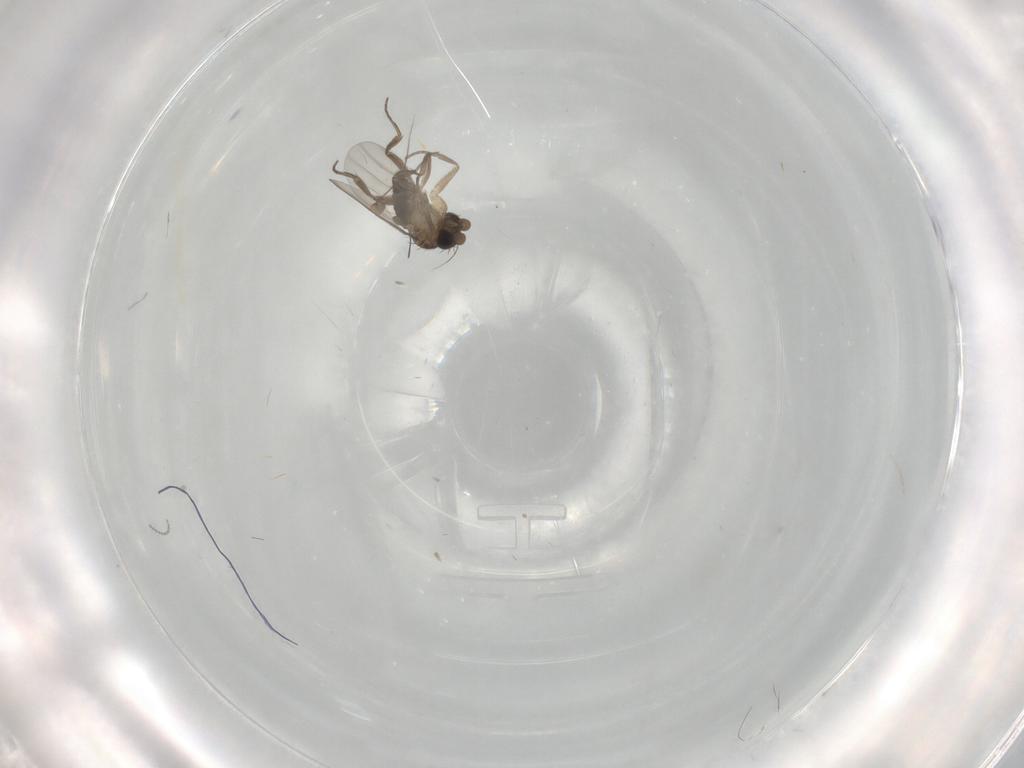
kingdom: Animalia
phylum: Arthropoda
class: Insecta
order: Diptera
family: Dolichopodidae
